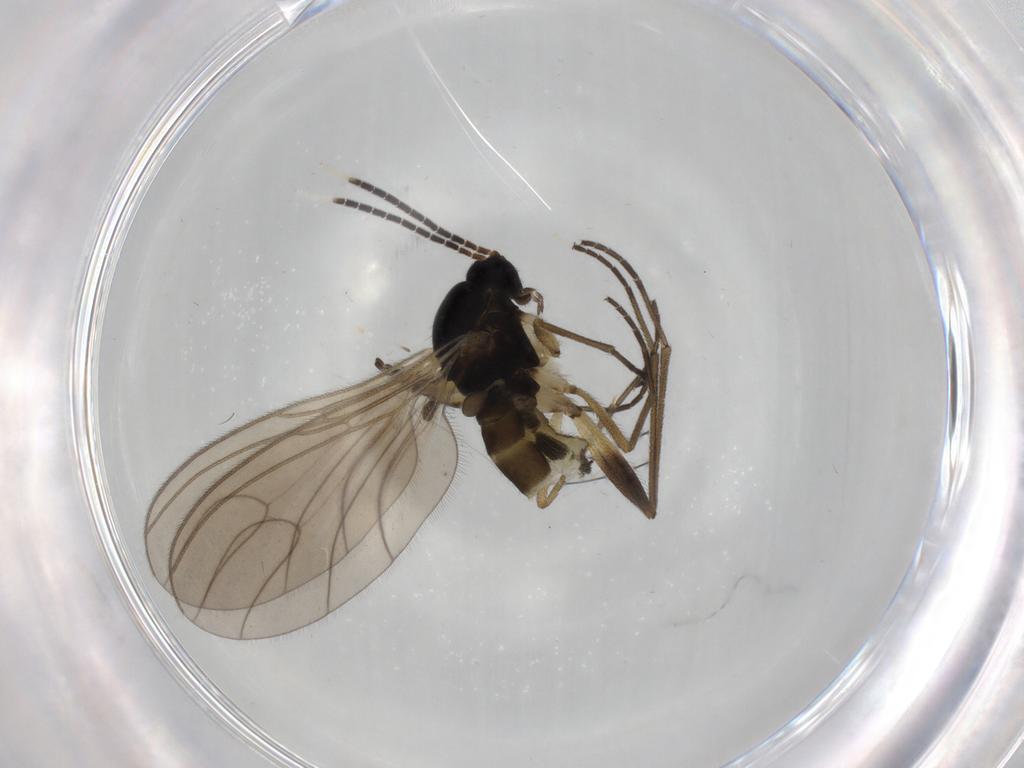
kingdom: Animalia
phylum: Arthropoda
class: Insecta
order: Diptera
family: Sciaridae
